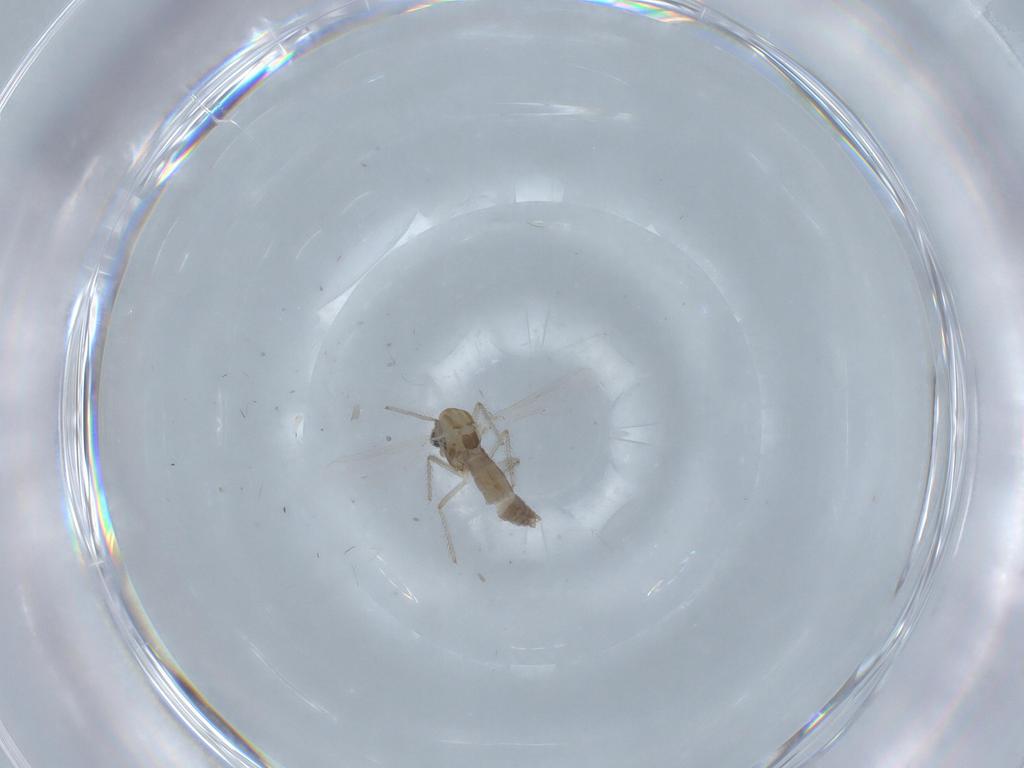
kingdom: Animalia
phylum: Arthropoda
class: Insecta
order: Diptera
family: Chironomidae
